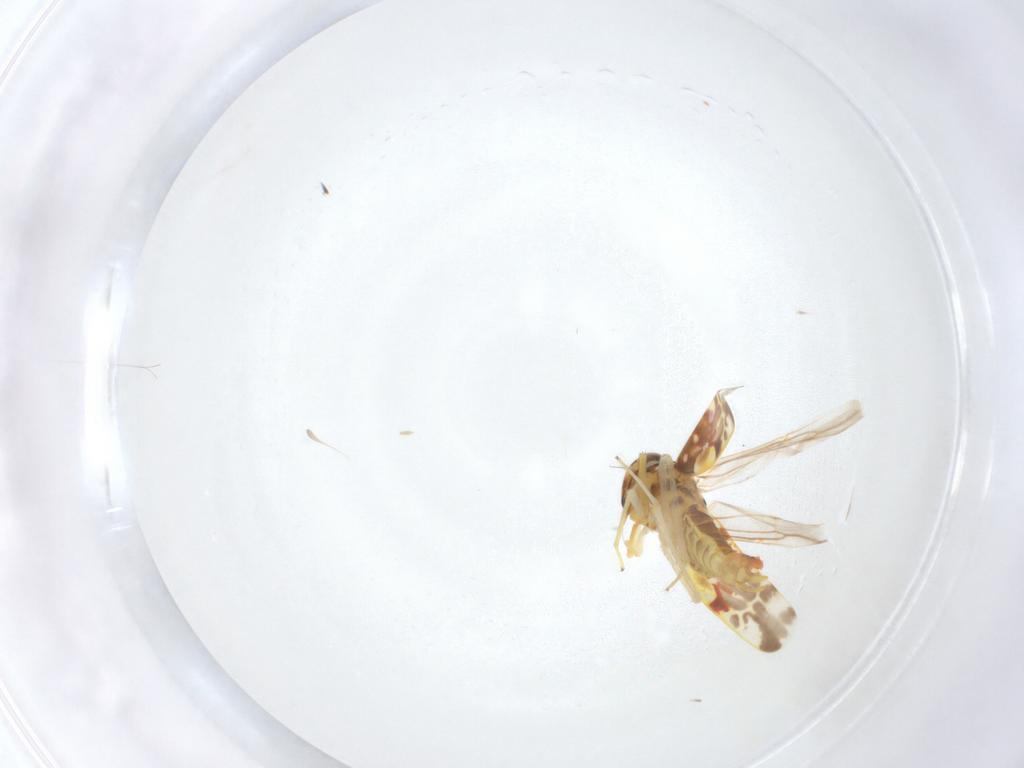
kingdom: Animalia
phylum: Arthropoda
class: Insecta
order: Hemiptera
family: Cicadellidae
